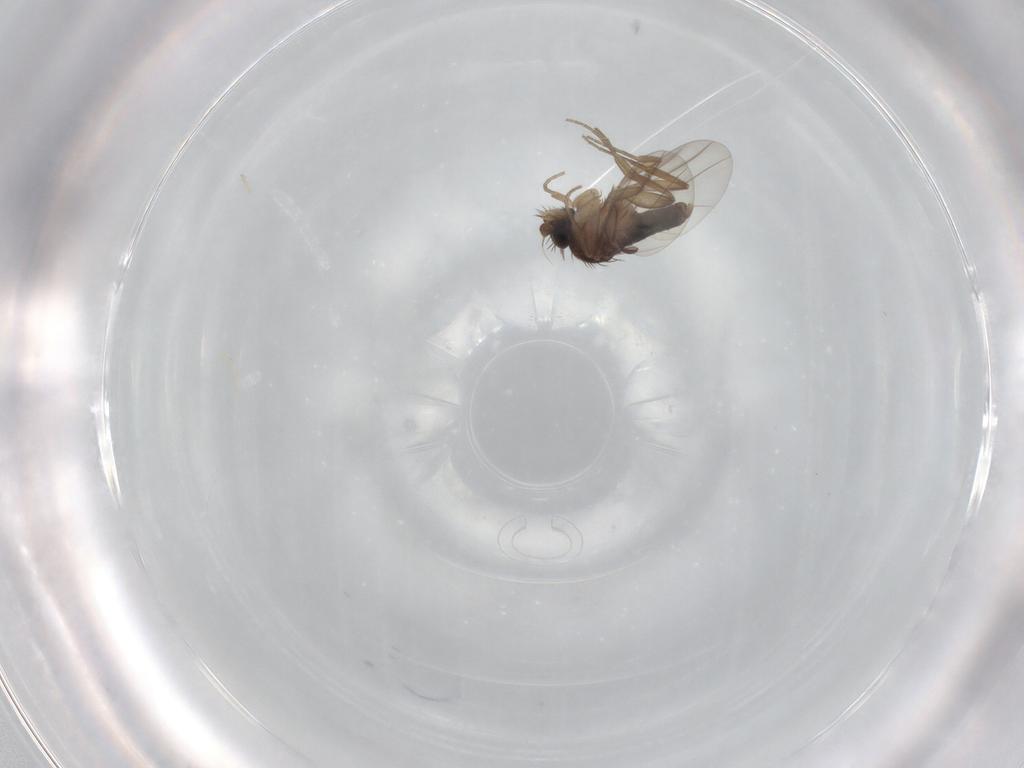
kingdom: Animalia
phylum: Arthropoda
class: Insecta
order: Diptera
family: Phoridae
